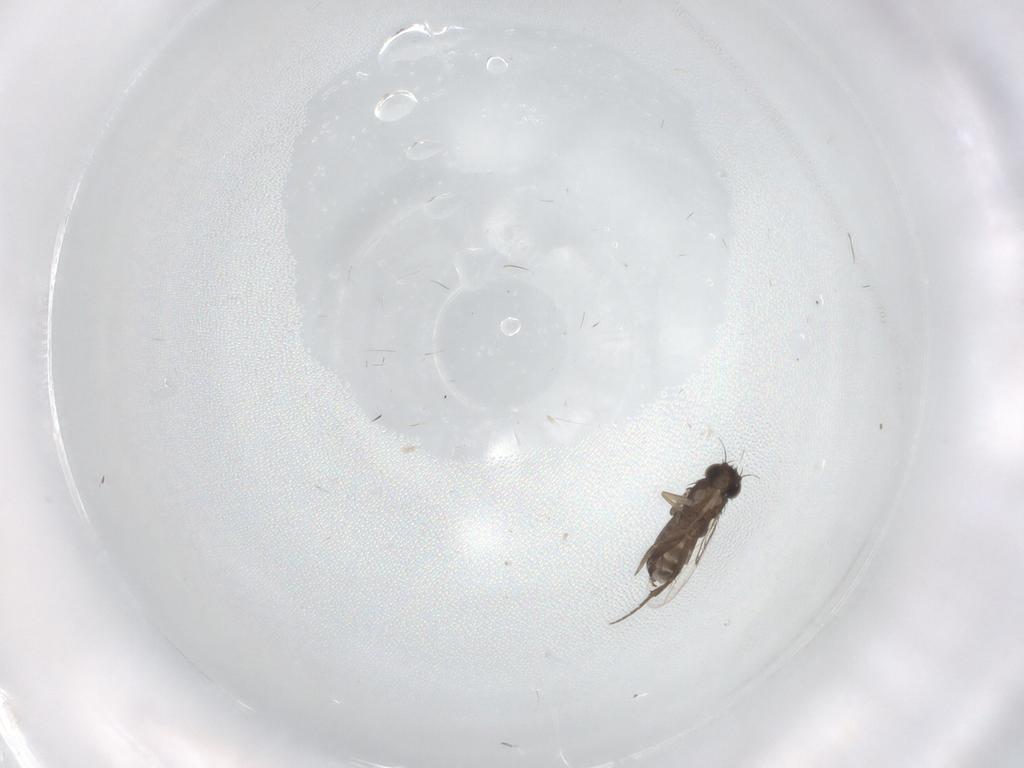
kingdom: Animalia
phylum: Arthropoda
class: Insecta
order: Diptera
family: Phoridae
